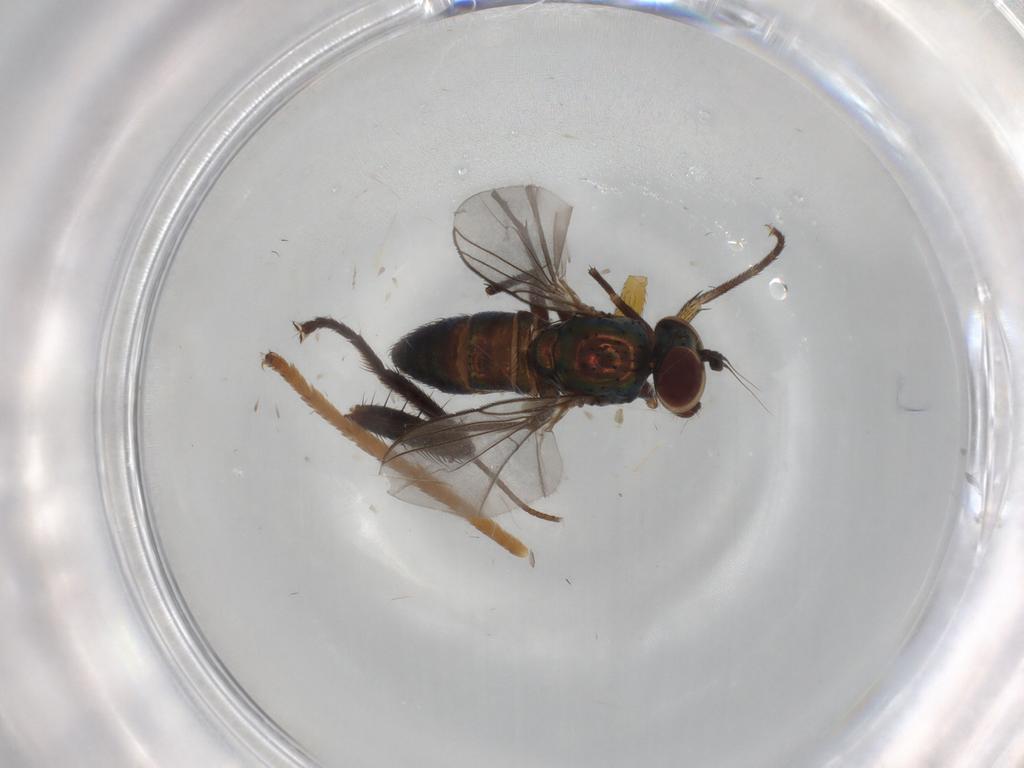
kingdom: Animalia
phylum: Arthropoda
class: Insecta
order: Diptera
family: Dolichopodidae
